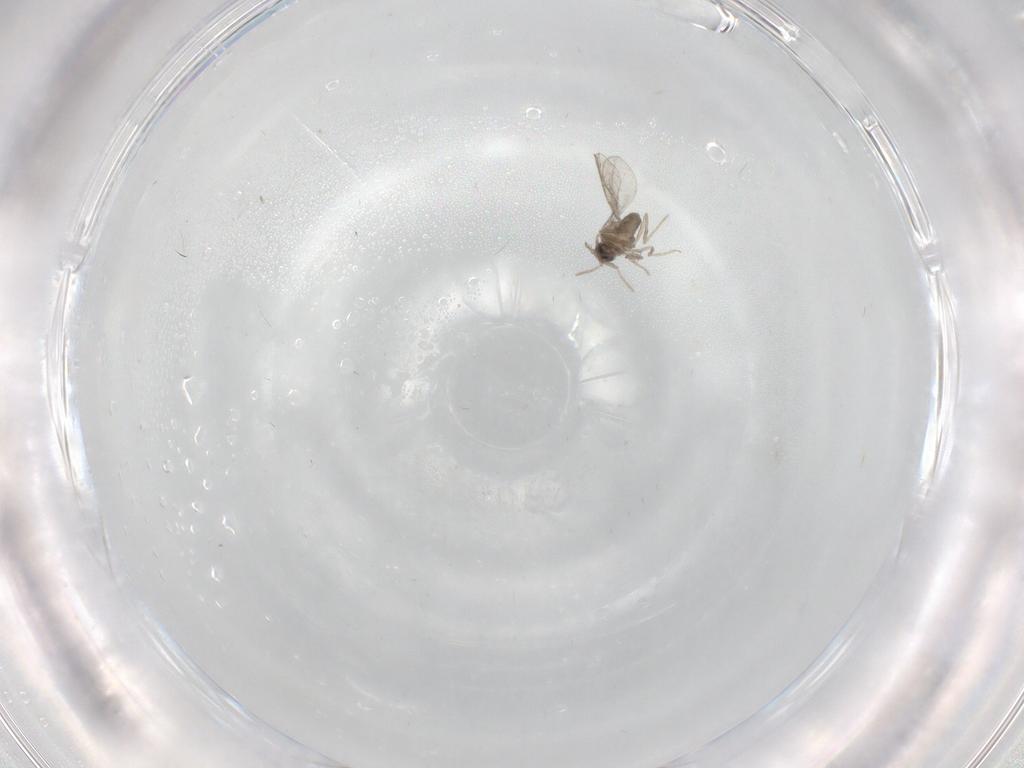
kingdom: Animalia
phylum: Arthropoda
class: Insecta
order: Diptera
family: Cecidomyiidae
